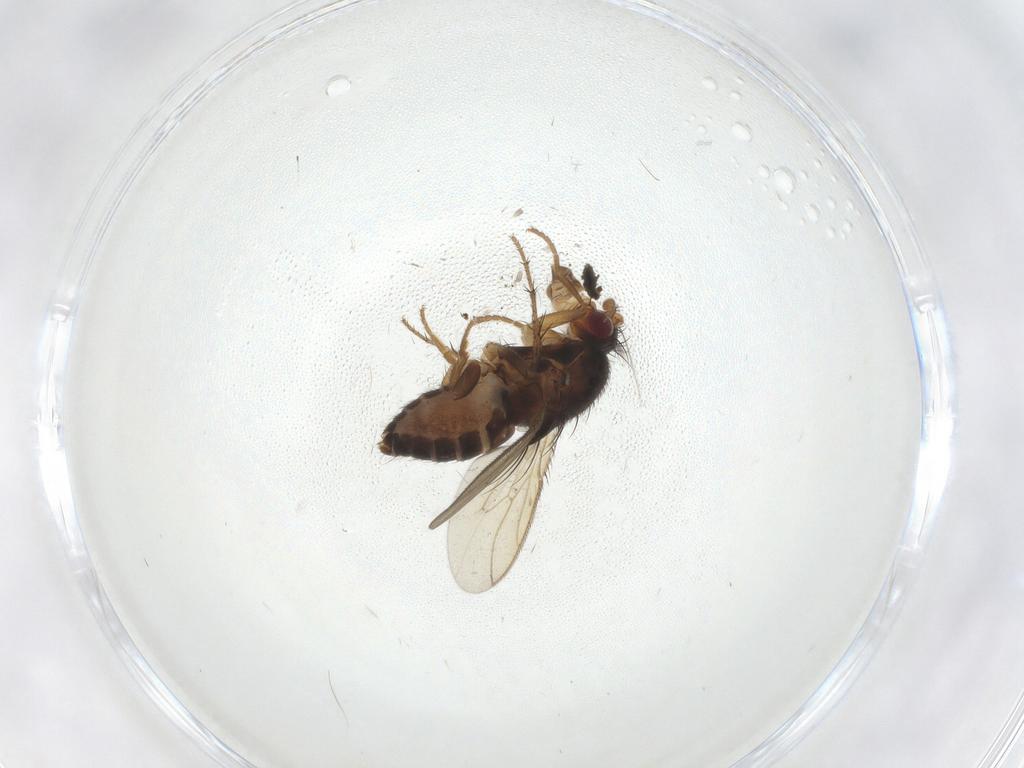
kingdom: Animalia
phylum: Arthropoda
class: Insecta
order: Diptera
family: Sphaeroceridae
